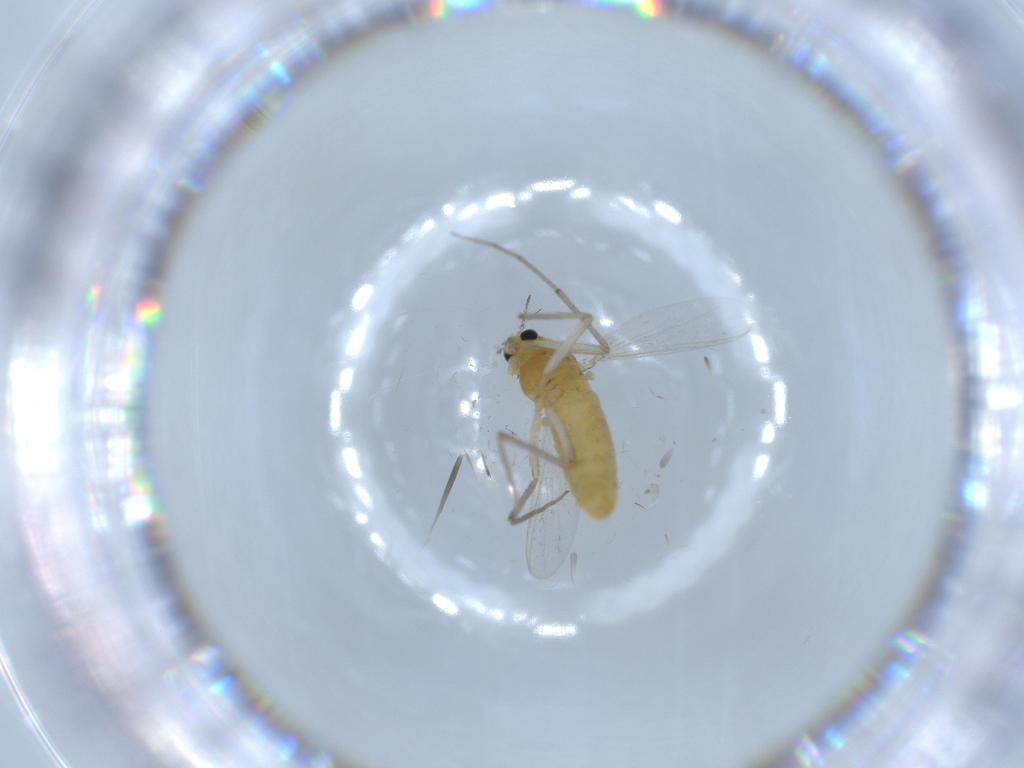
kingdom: Animalia
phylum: Arthropoda
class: Insecta
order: Diptera
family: Chironomidae
